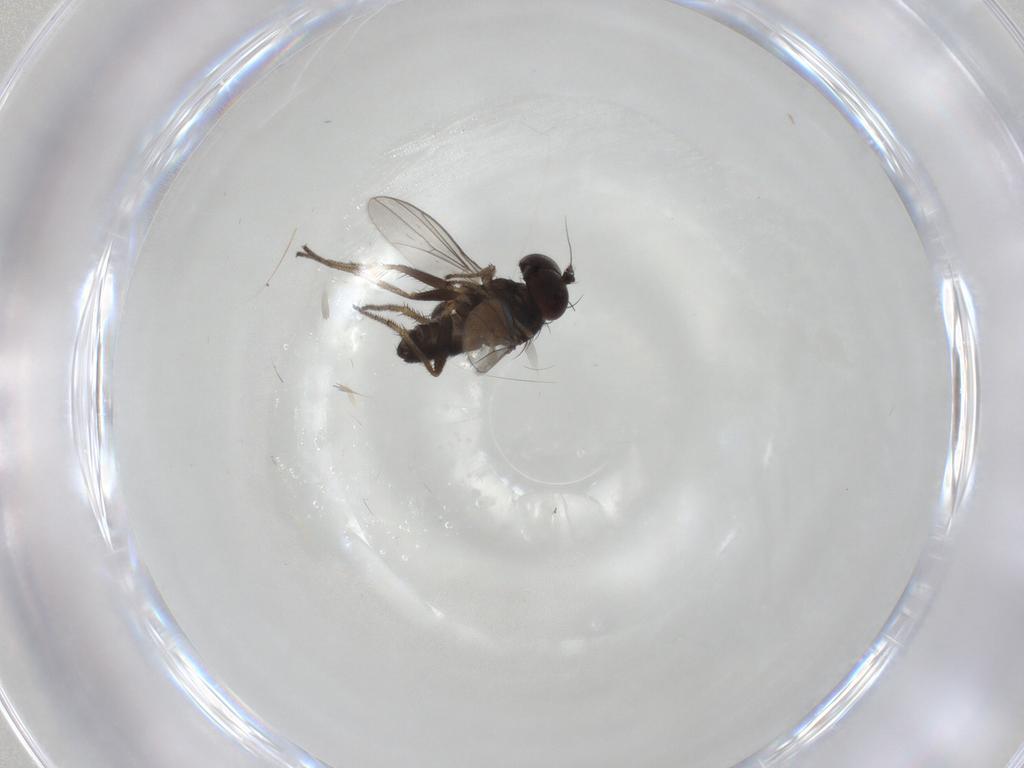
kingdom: Animalia
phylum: Arthropoda
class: Insecta
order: Diptera
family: Dolichopodidae
